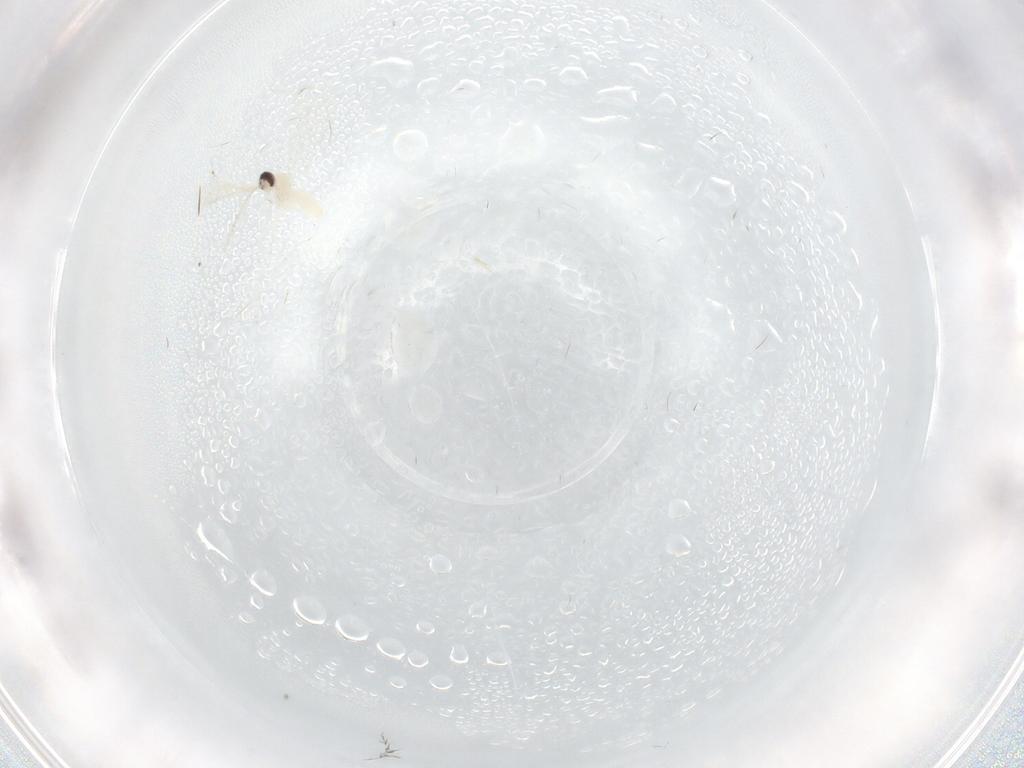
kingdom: Animalia
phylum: Arthropoda
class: Insecta
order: Diptera
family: Cecidomyiidae
